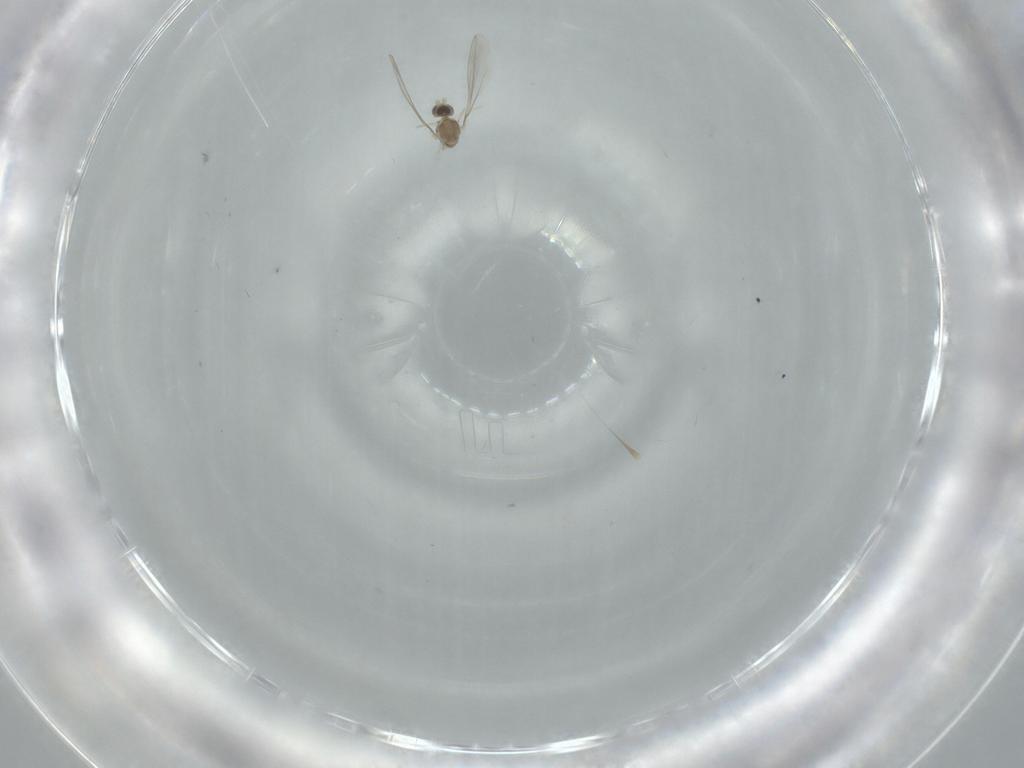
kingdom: Animalia
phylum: Arthropoda
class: Insecta
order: Diptera
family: Cecidomyiidae
